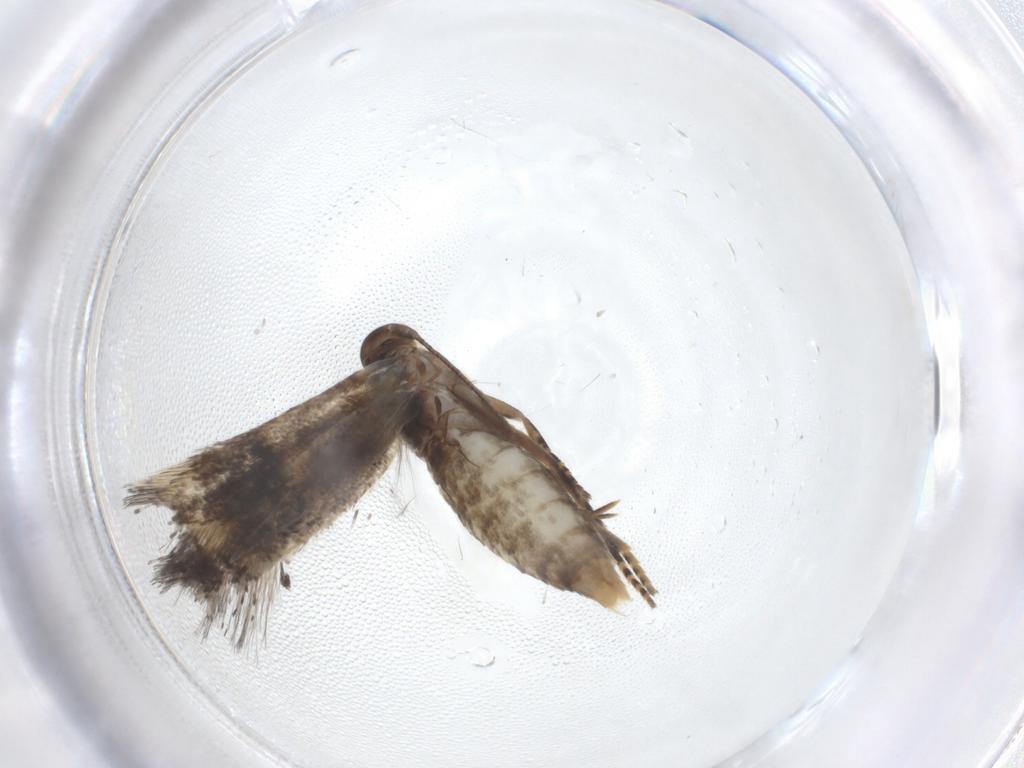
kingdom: Animalia
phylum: Arthropoda
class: Insecta
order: Lepidoptera
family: Elachistidae
